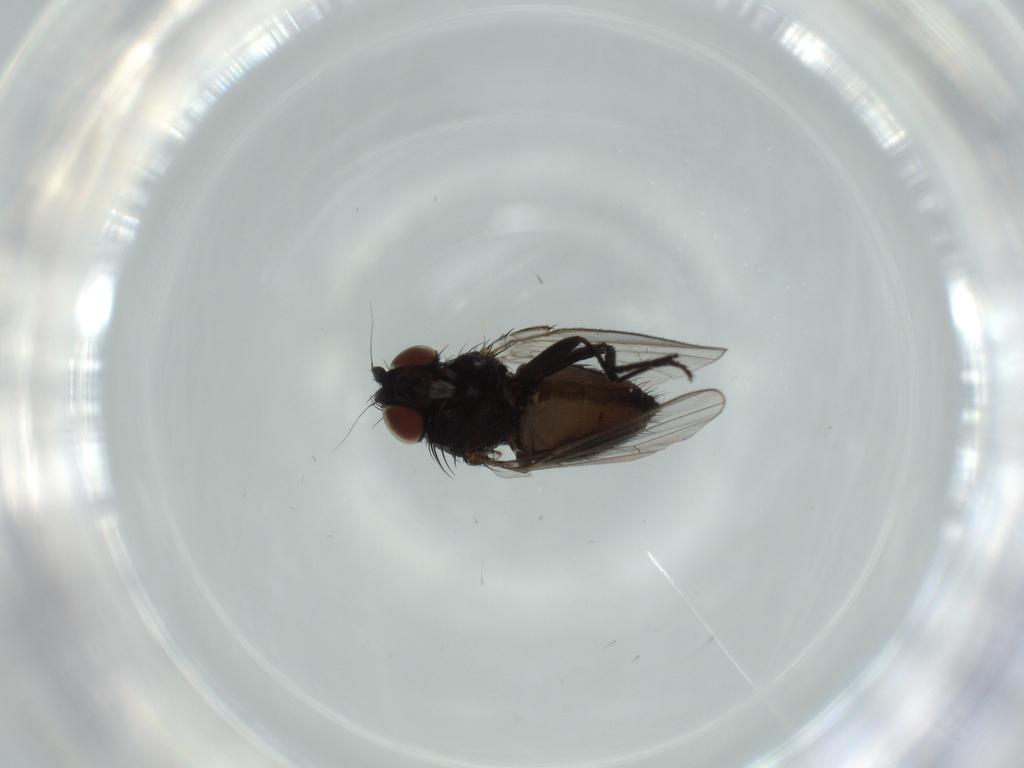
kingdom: Animalia
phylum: Arthropoda
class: Insecta
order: Diptera
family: Milichiidae
